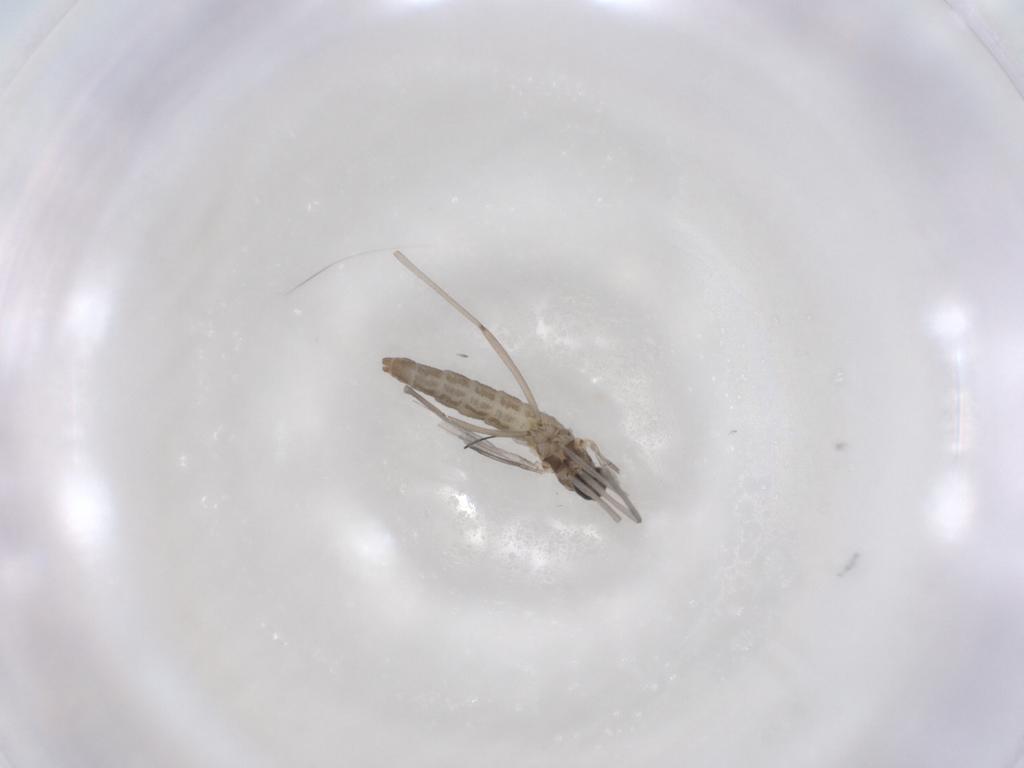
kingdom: Animalia
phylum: Arthropoda
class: Insecta
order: Diptera
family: Cecidomyiidae
